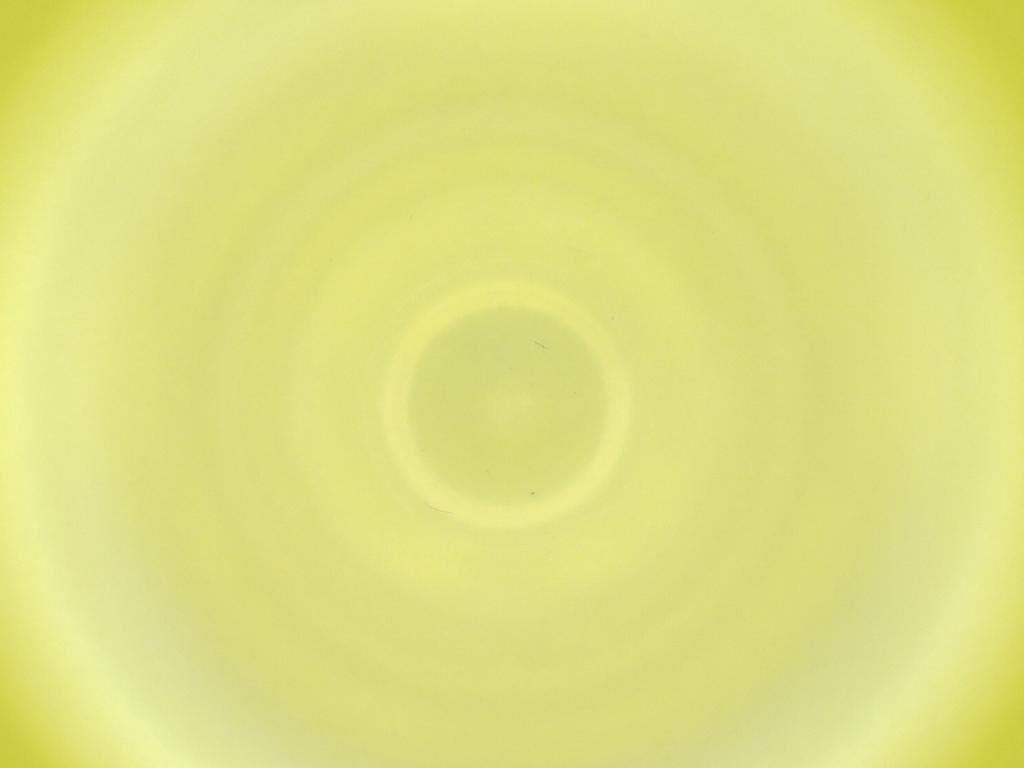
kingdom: Animalia
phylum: Arthropoda
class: Insecta
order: Diptera
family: Cecidomyiidae
